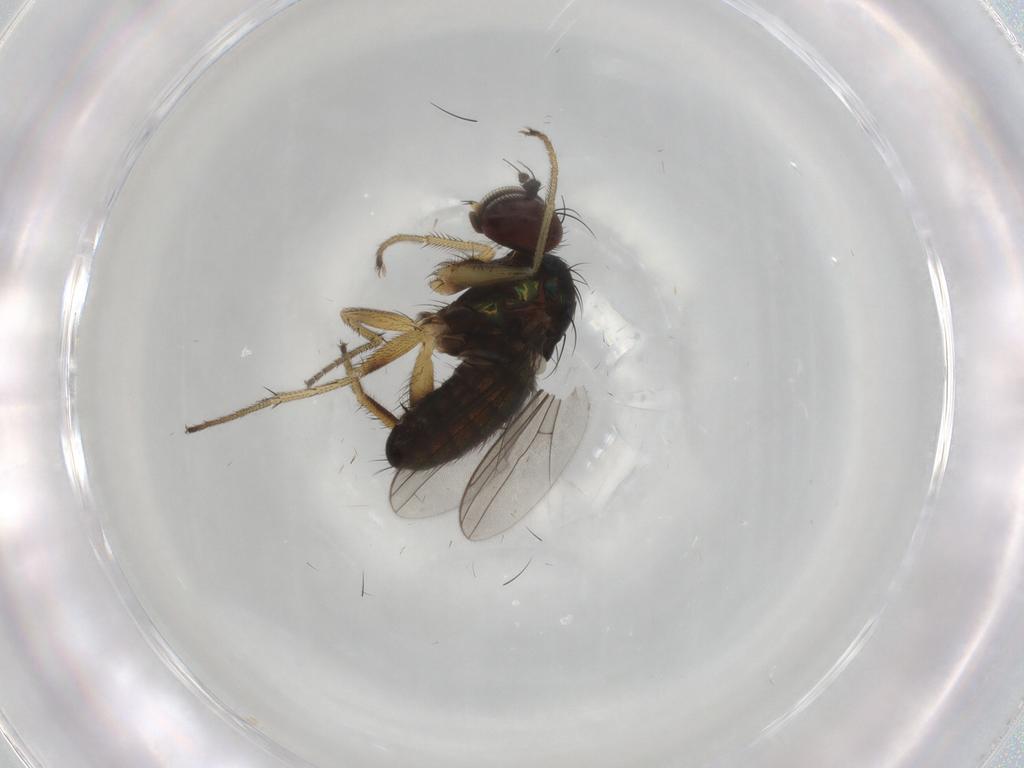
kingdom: Animalia
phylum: Arthropoda
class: Insecta
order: Diptera
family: Dolichopodidae
